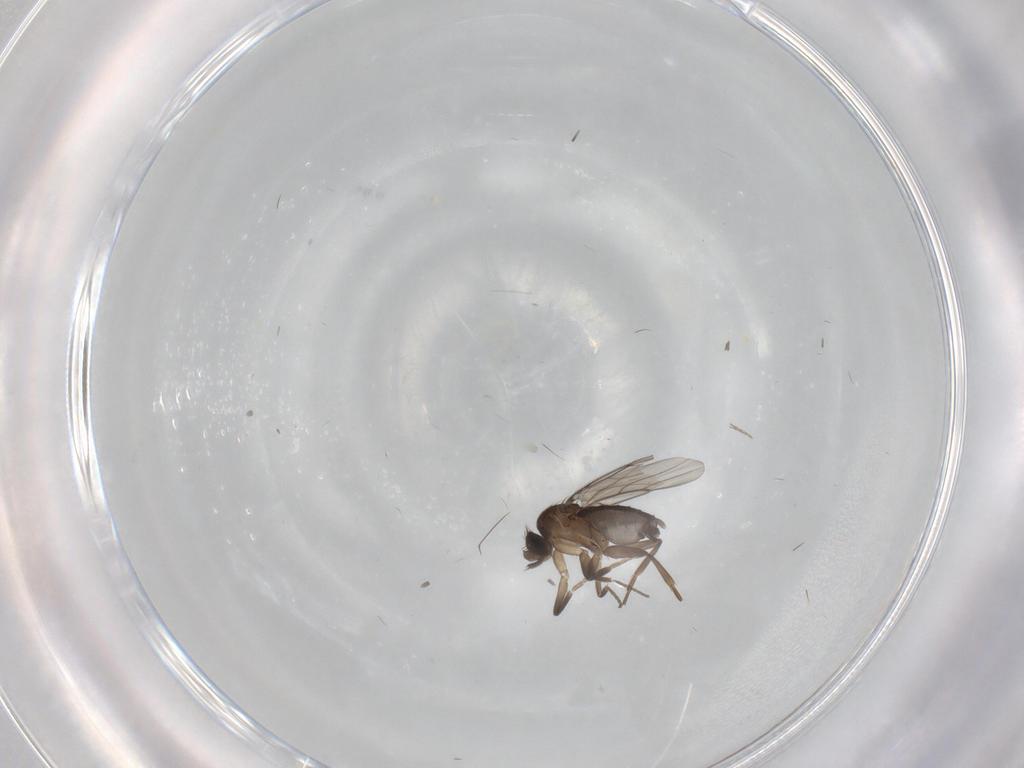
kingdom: Animalia
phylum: Arthropoda
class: Insecta
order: Diptera
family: Phoridae
